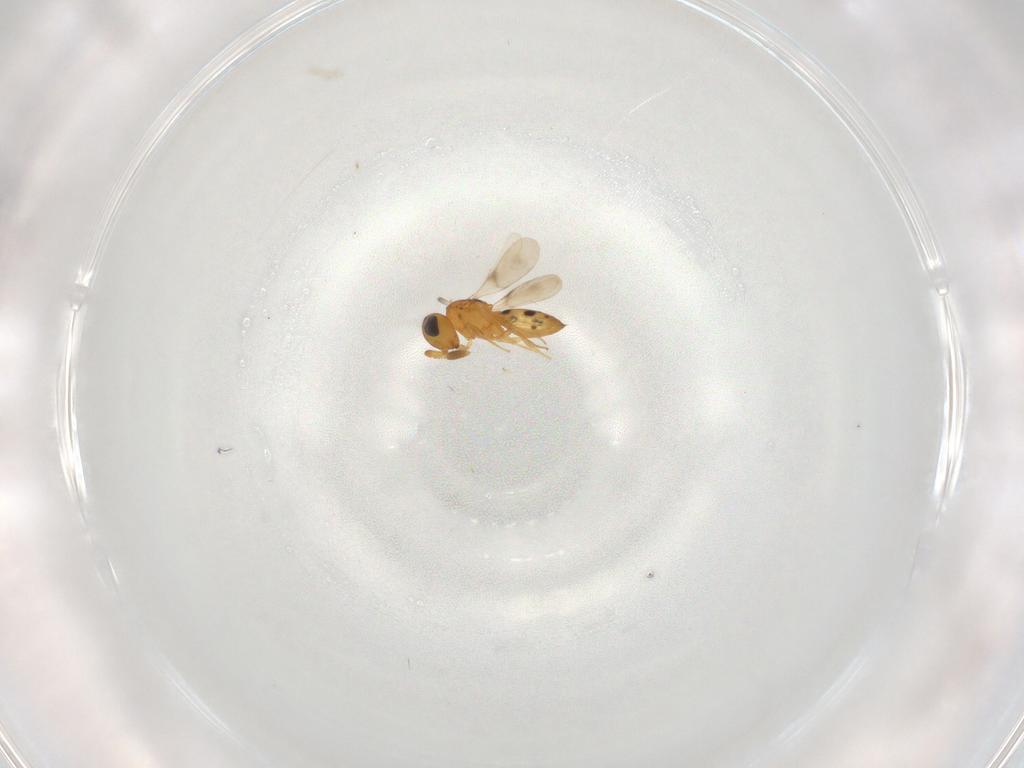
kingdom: Animalia
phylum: Arthropoda
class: Insecta
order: Hymenoptera
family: Scelionidae
